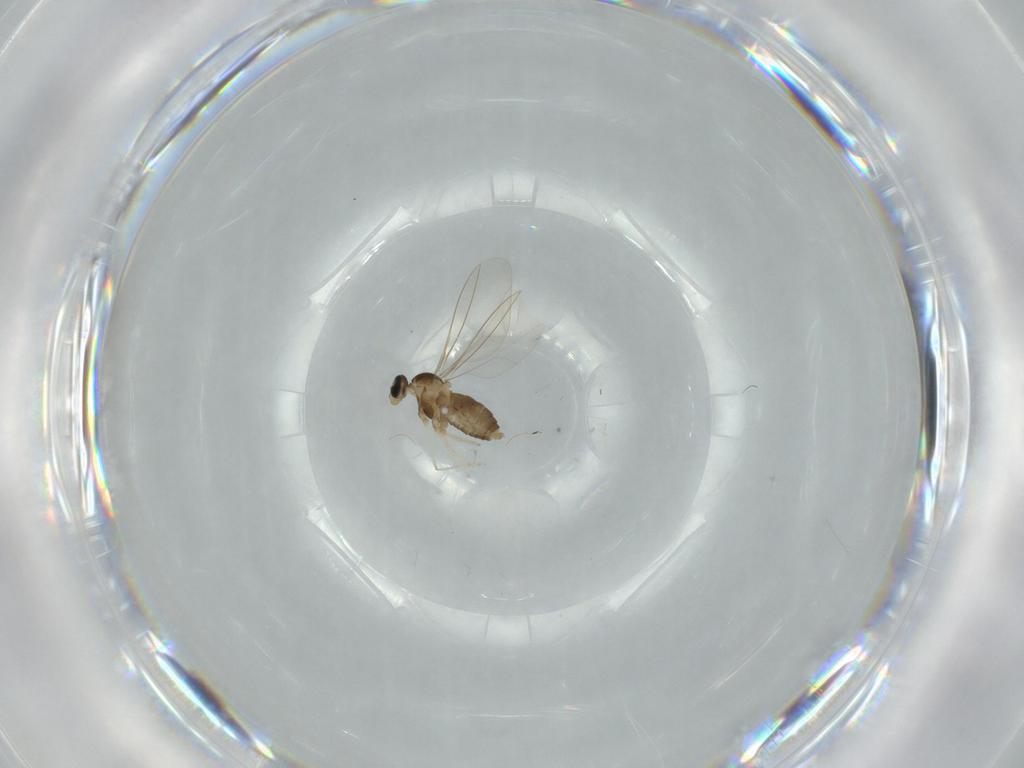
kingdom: Animalia
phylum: Arthropoda
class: Insecta
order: Diptera
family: Cecidomyiidae
